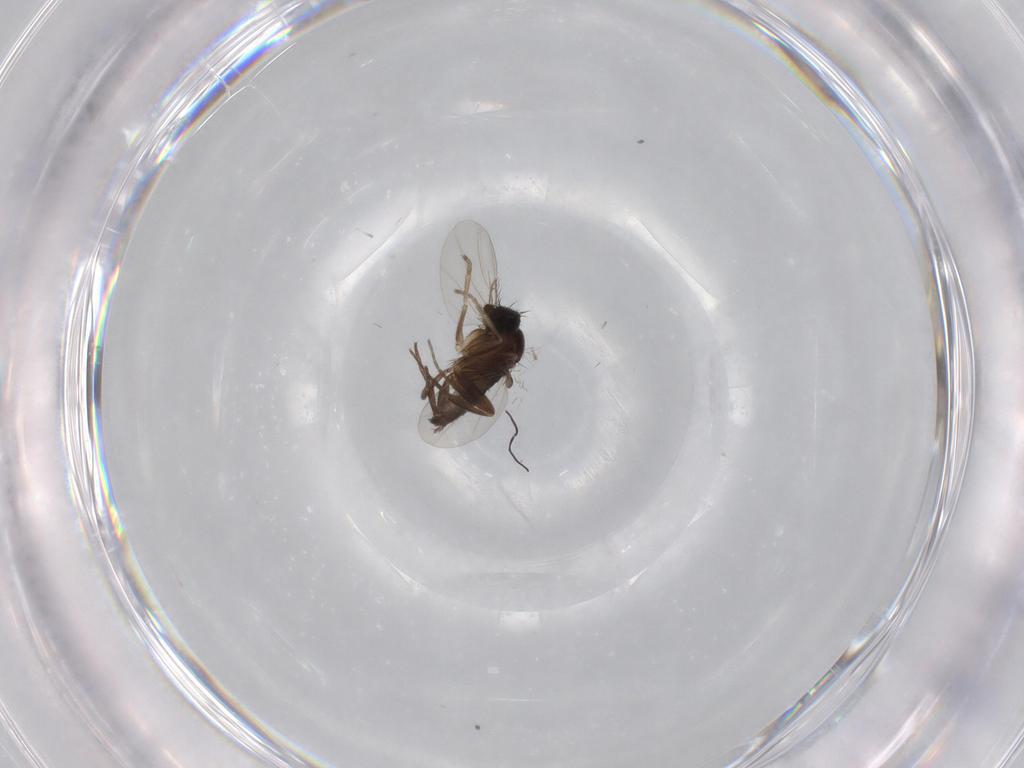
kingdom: Animalia
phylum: Arthropoda
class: Insecta
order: Diptera
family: Phoridae
